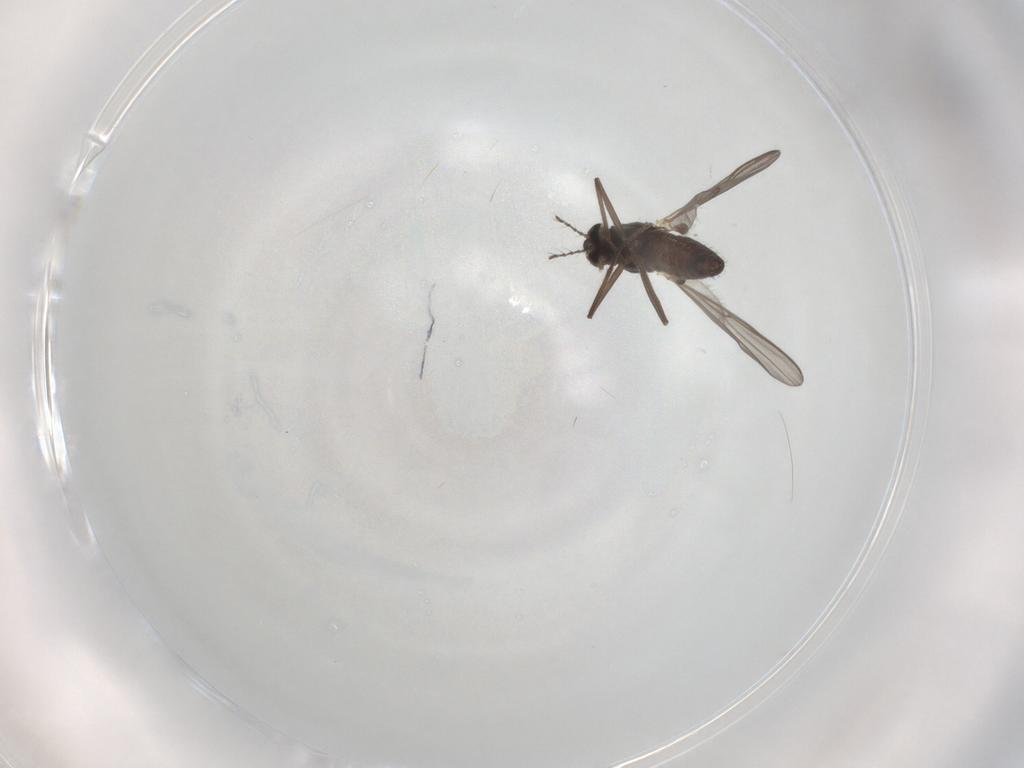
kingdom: Animalia
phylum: Arthropoda
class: Insecta
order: Diptera
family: Chironomidae
